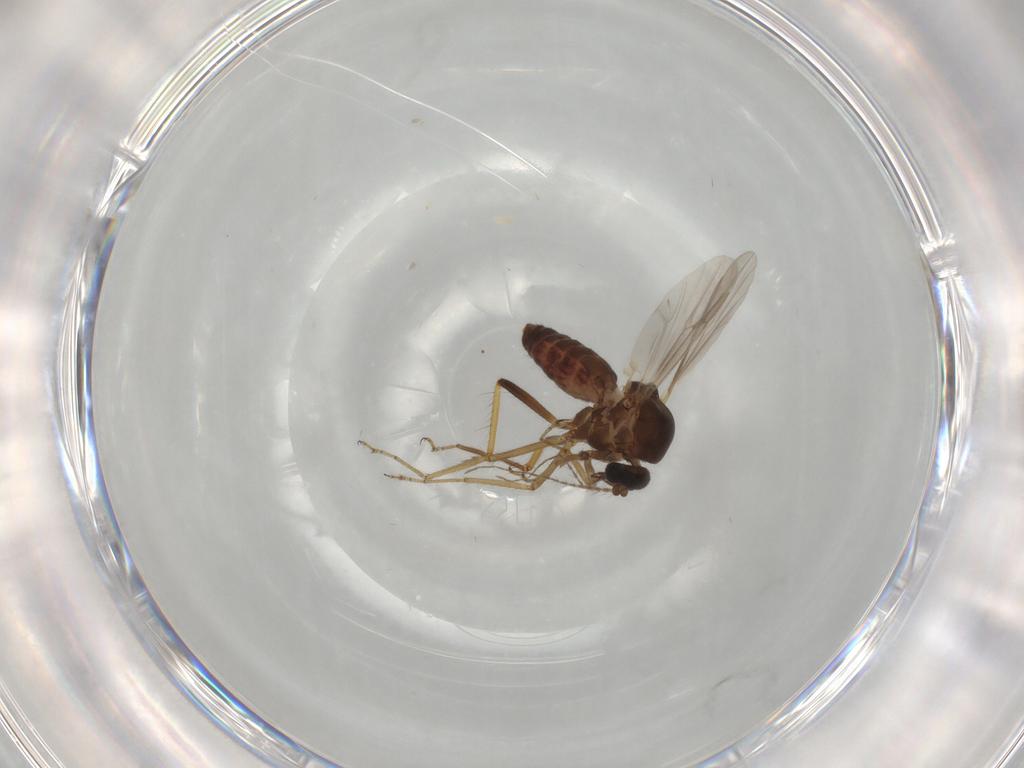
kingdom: Animalia
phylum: Arthropoda
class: Insecta
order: Diptera
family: Ceratopogonidae
